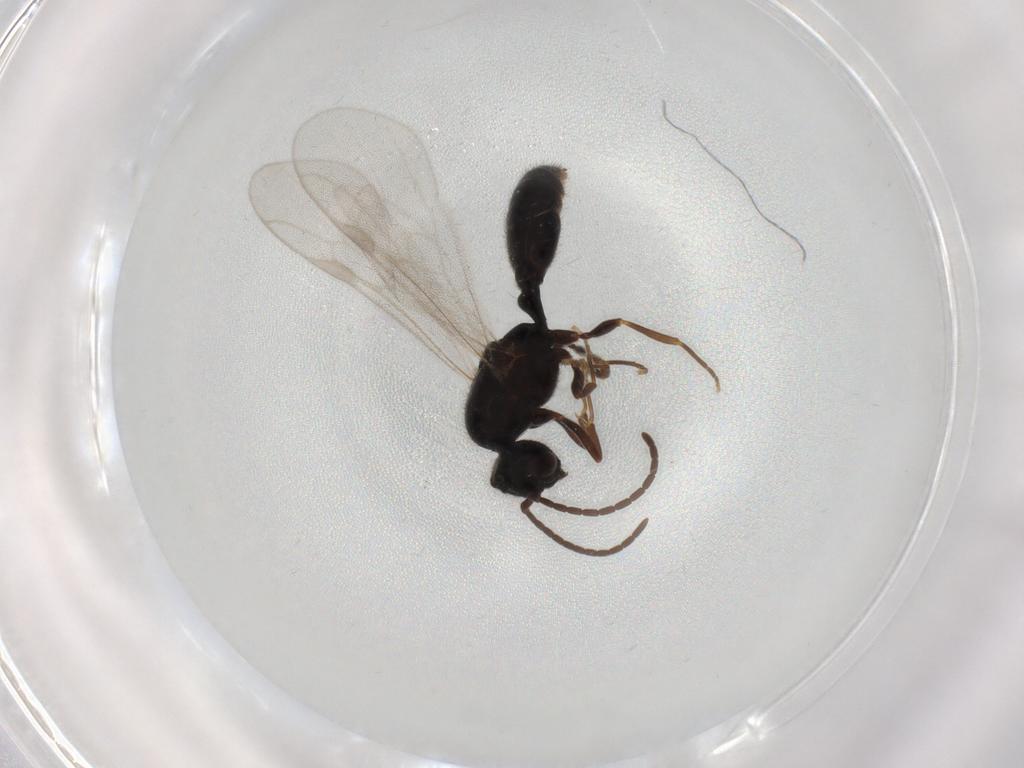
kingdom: Animalia
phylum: Arthropoda
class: Insecta
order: Hymenoptera
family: Formicidae
